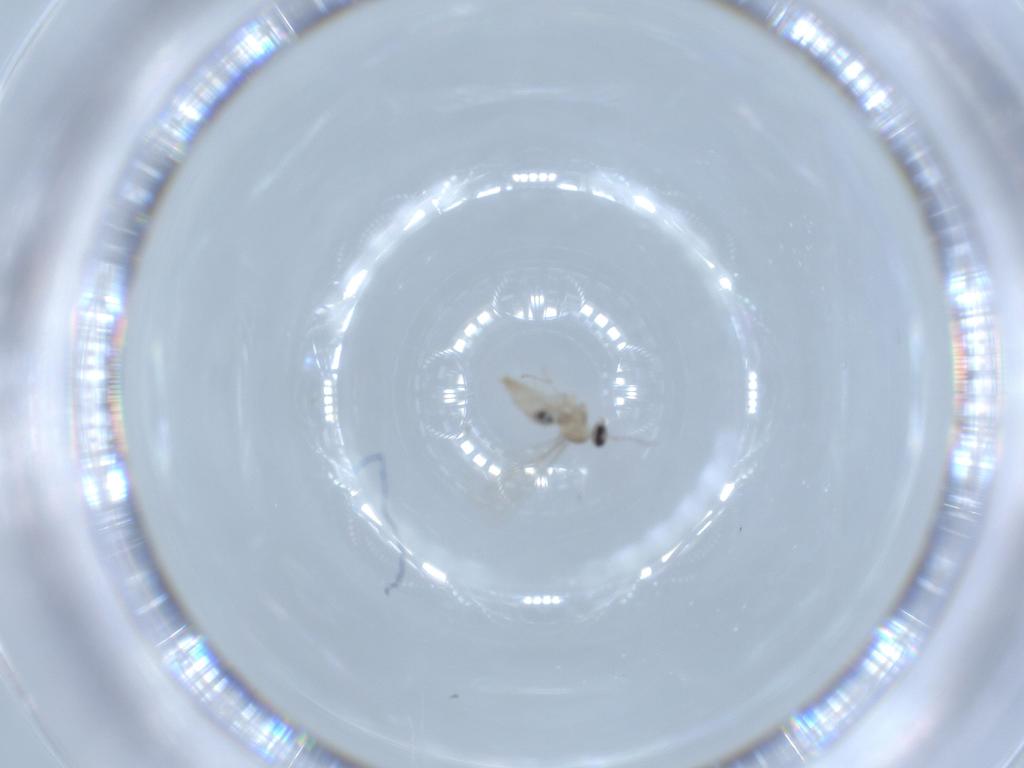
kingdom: Animalia
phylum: Arthropoda
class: Insecta
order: Diptera
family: Cecidomyiidae
